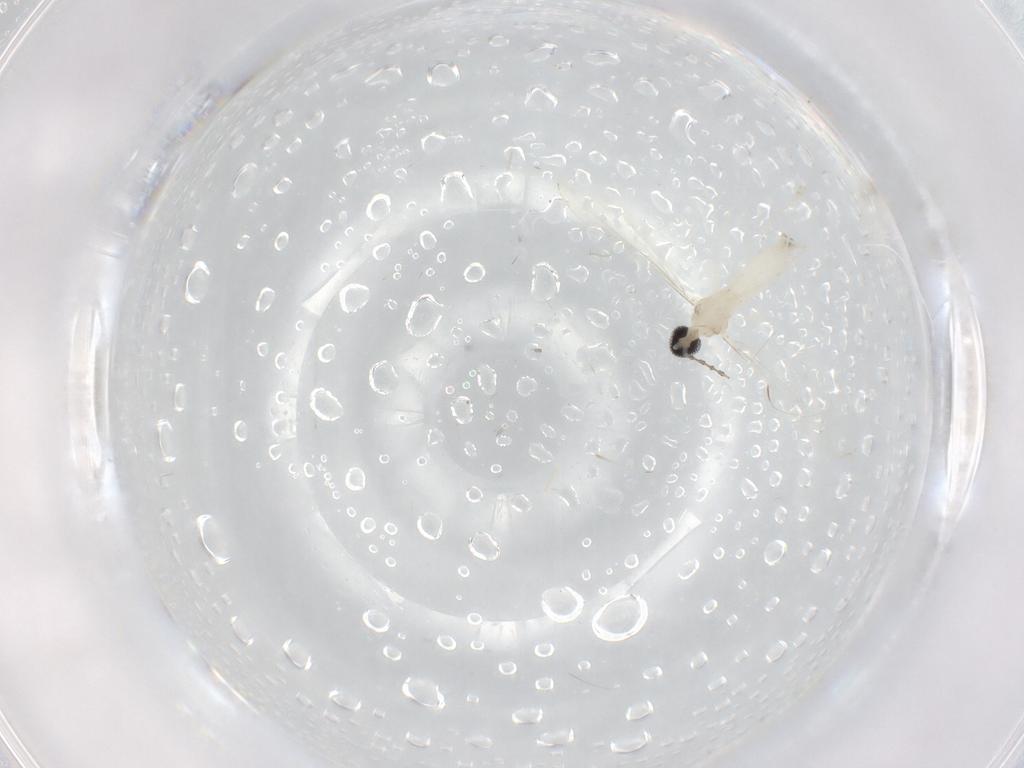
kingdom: Animalia
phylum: Arthropoda
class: Insecta
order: Diptera
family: Cecidomyiidae
